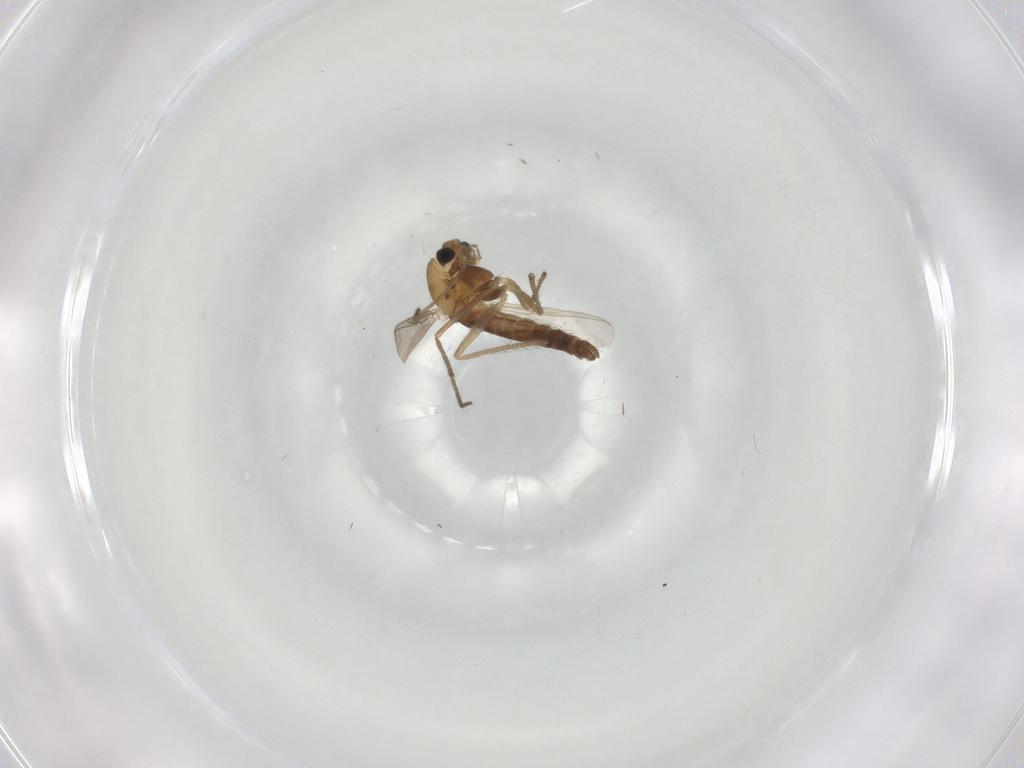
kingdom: Animalia
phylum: Arthropoda
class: Insecta
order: Diptera
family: Chironomidae
